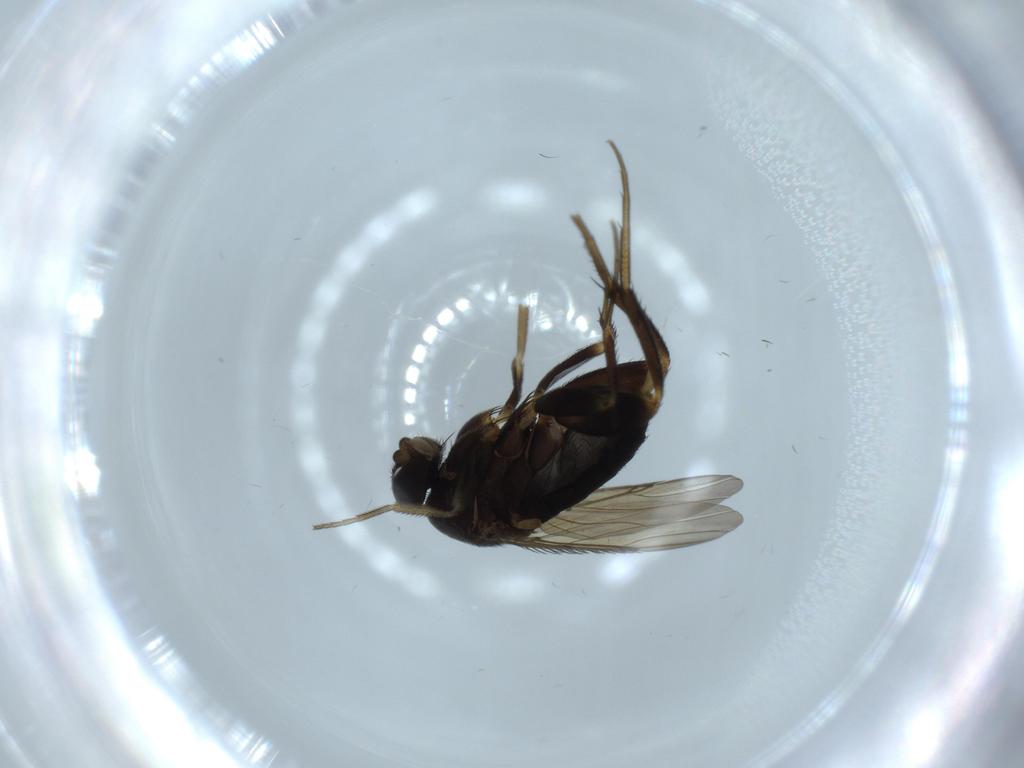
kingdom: Animalia
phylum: Arthropoda
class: Insecta
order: Diptera
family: Phoridae
